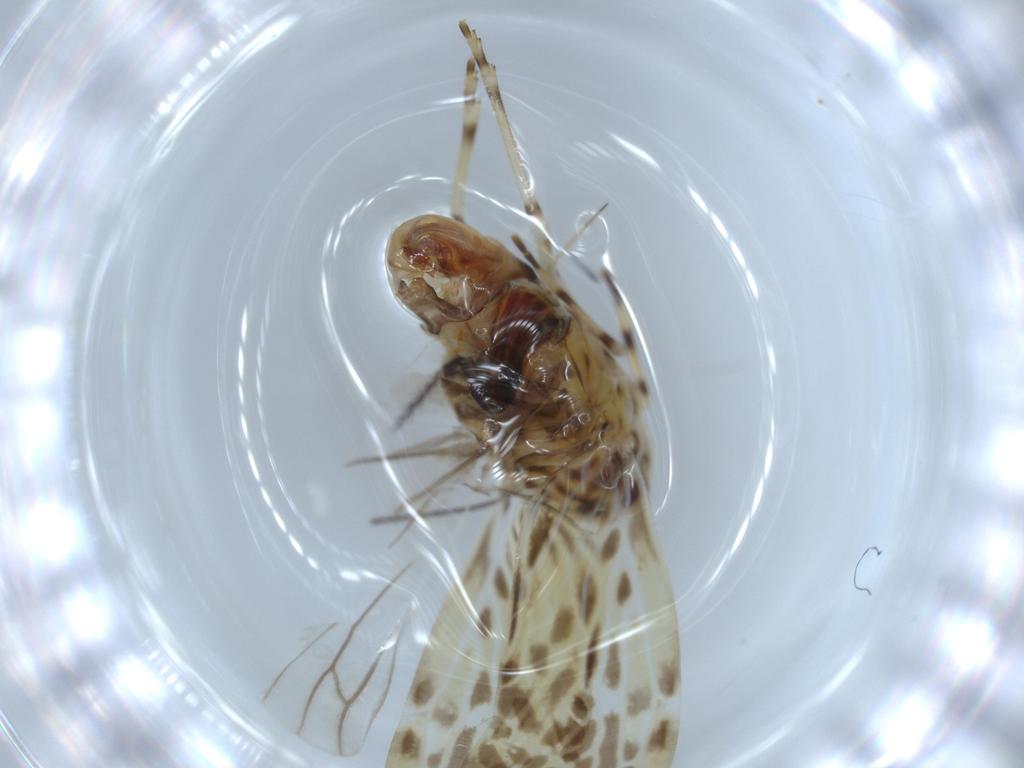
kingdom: Animalia
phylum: Arthropoda
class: Insecta
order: Hemiptera
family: Derbidae
